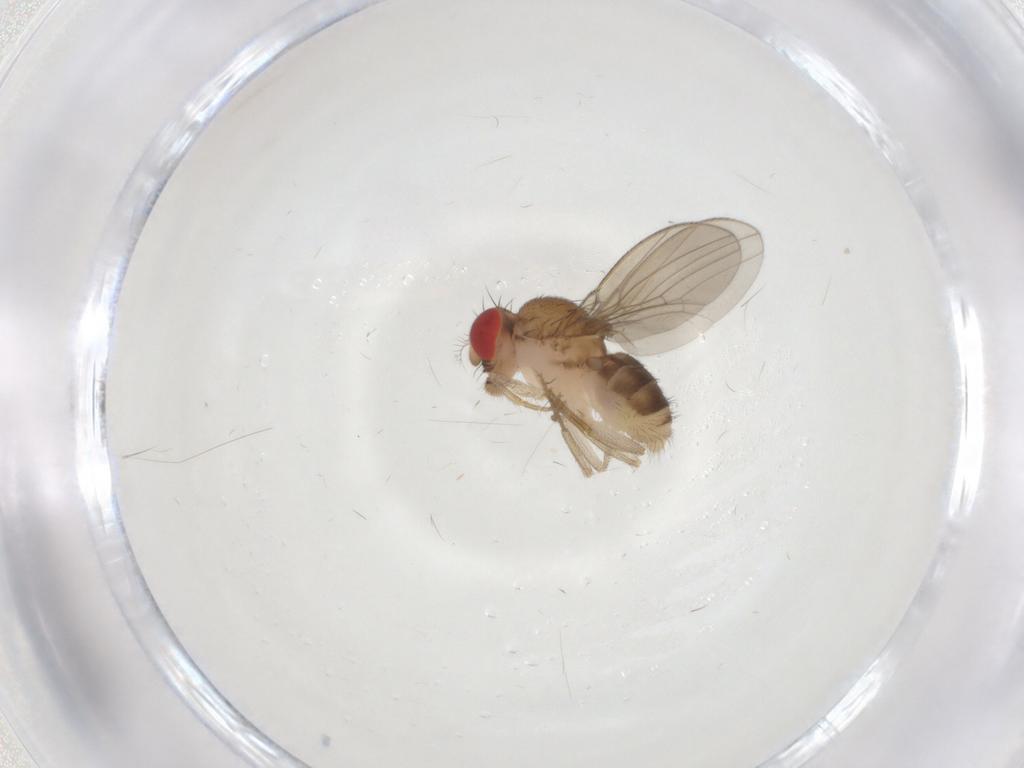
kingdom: Animalia
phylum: Arthropoda
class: Insecta
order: Diptera
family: Drosophilidae
